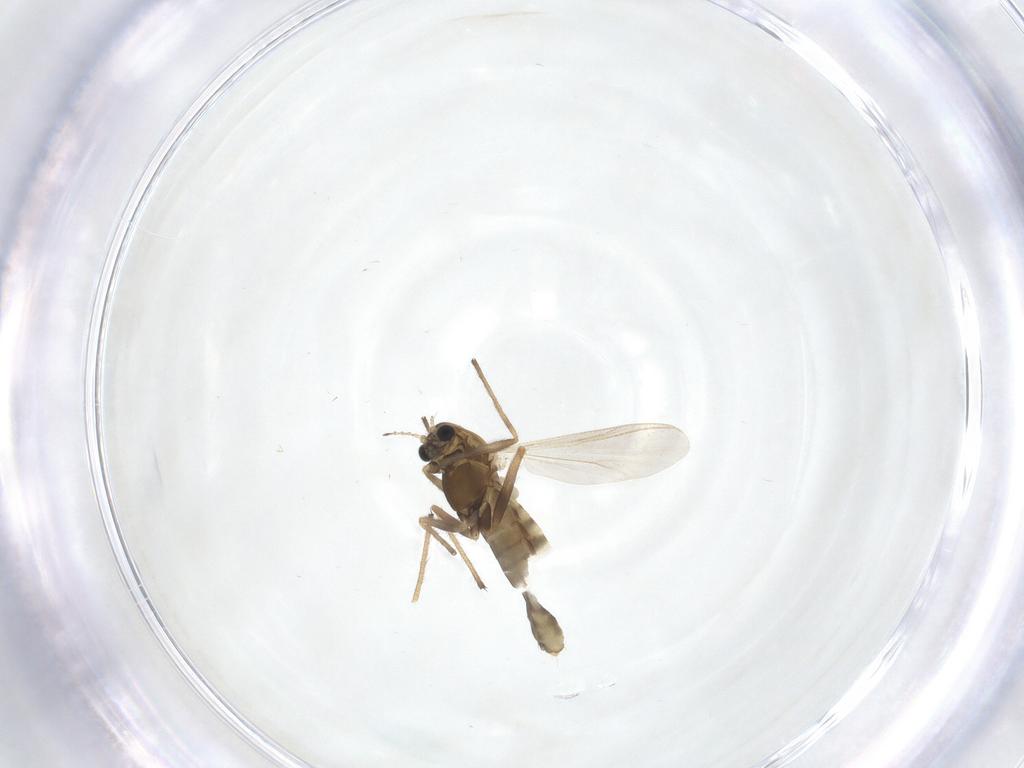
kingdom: Animalia
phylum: Arthropoda
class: Insecta
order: Diptera
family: Chironomidae
